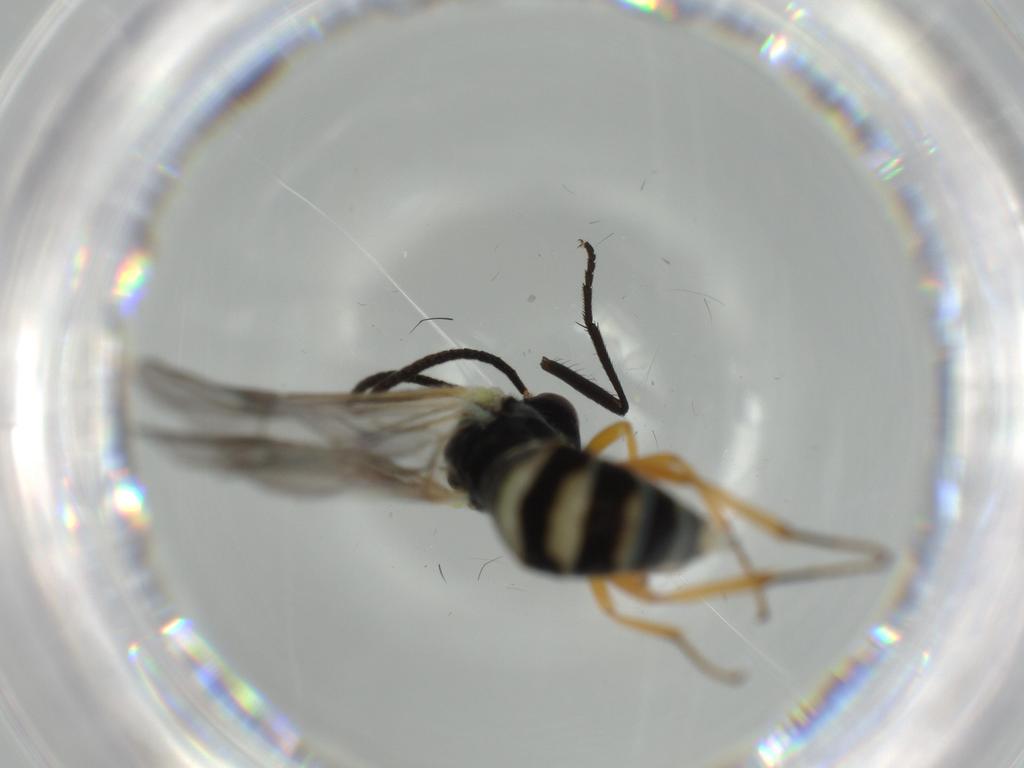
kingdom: Animalia
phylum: Arthropoda
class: Insecta
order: Hymenoptera
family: Ichneumonidae
